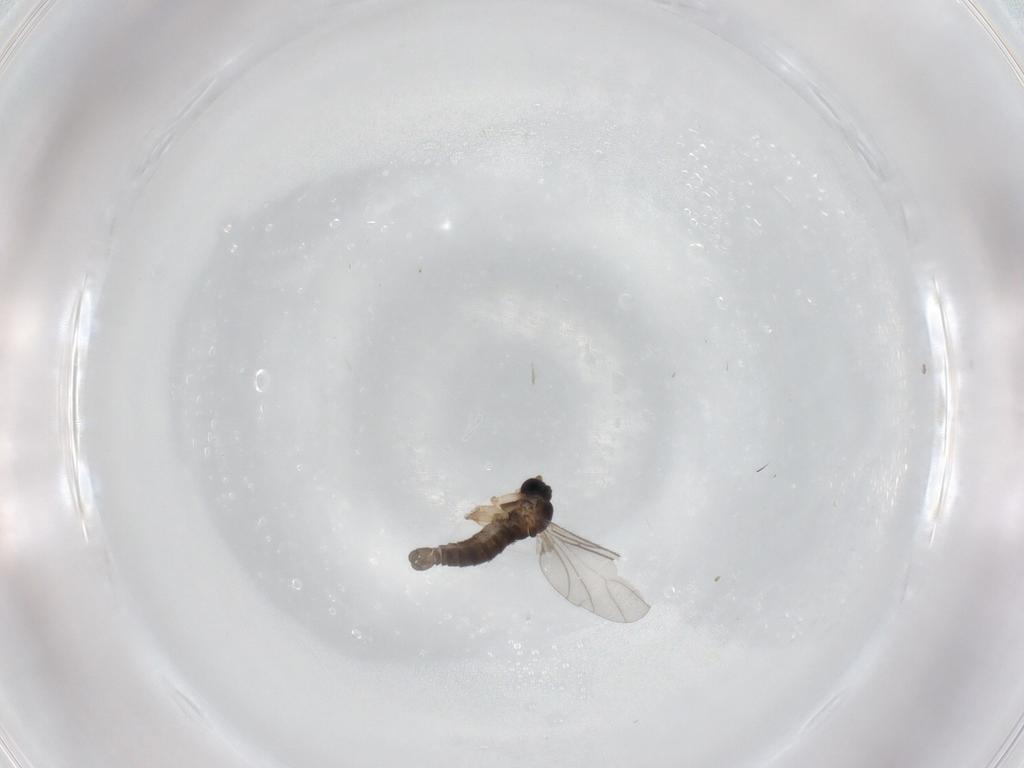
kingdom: Animalia
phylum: Arthropoda
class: Insecta
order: Diptera
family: Sciaridae
